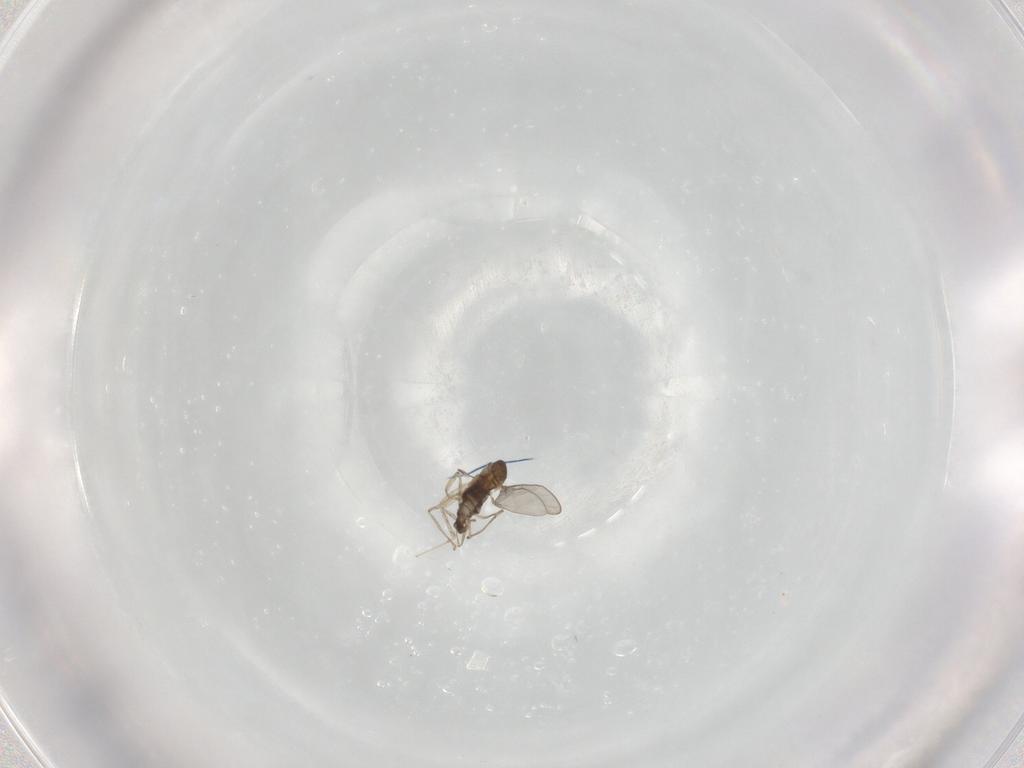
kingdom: Animalia
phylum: Arthropoda
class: Insecta
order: Diptera
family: Cecidomyiidae
